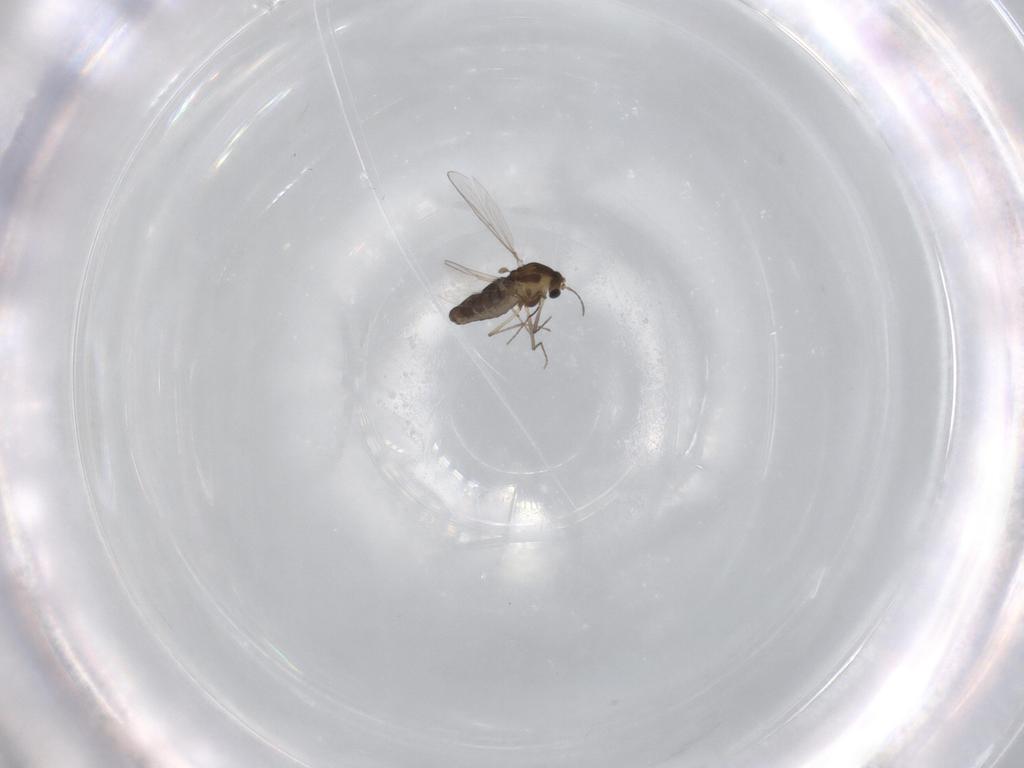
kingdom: Animalia
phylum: Arthropoda
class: Insecta
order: Diptera
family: Chironomidae
